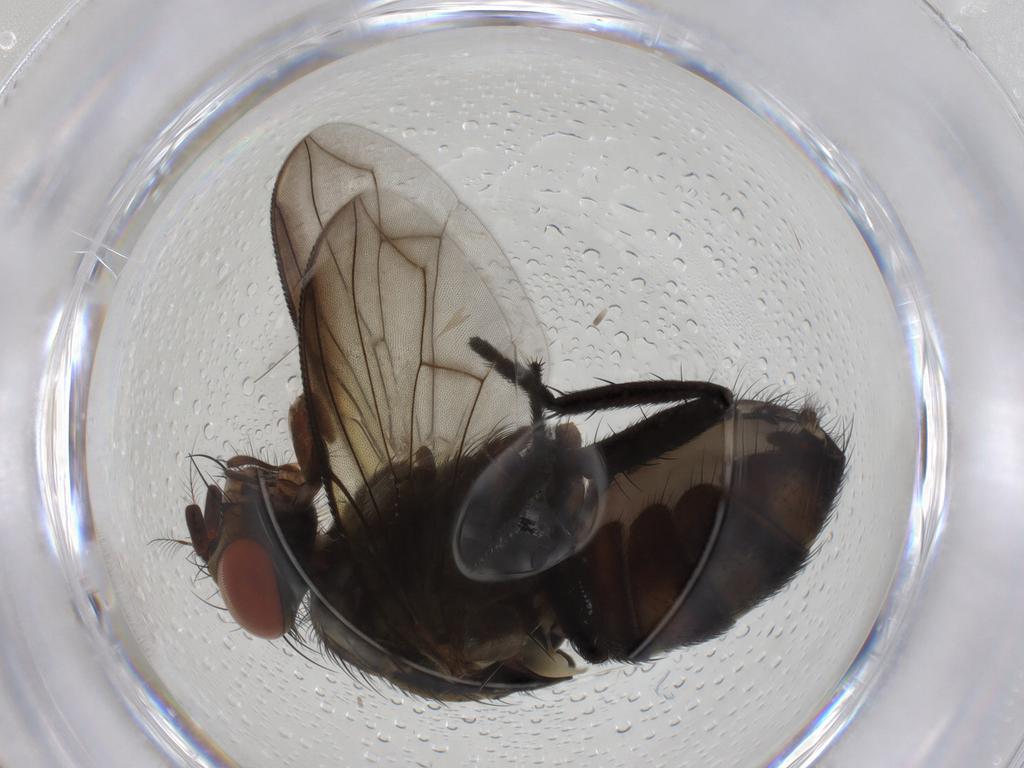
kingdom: Animalia
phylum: Arthropoda
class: Insecta
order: Diptera
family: Sarcophagidae
